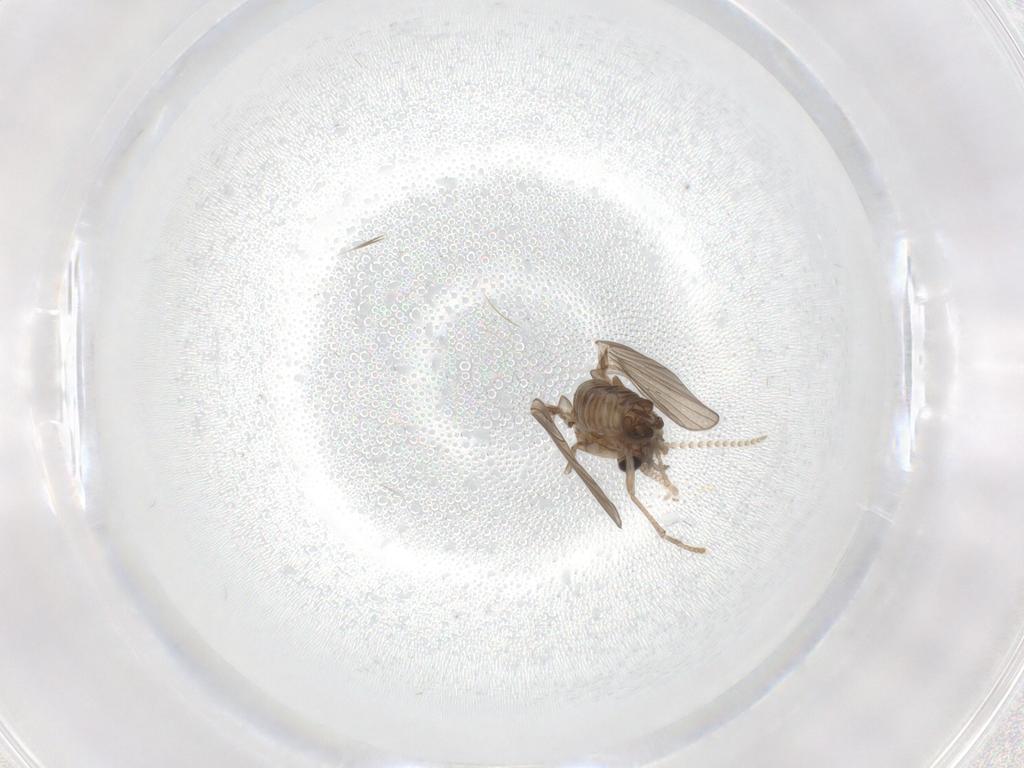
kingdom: Animalia
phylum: Arthropoda
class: Insecta
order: Diptera
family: Psychodidae
